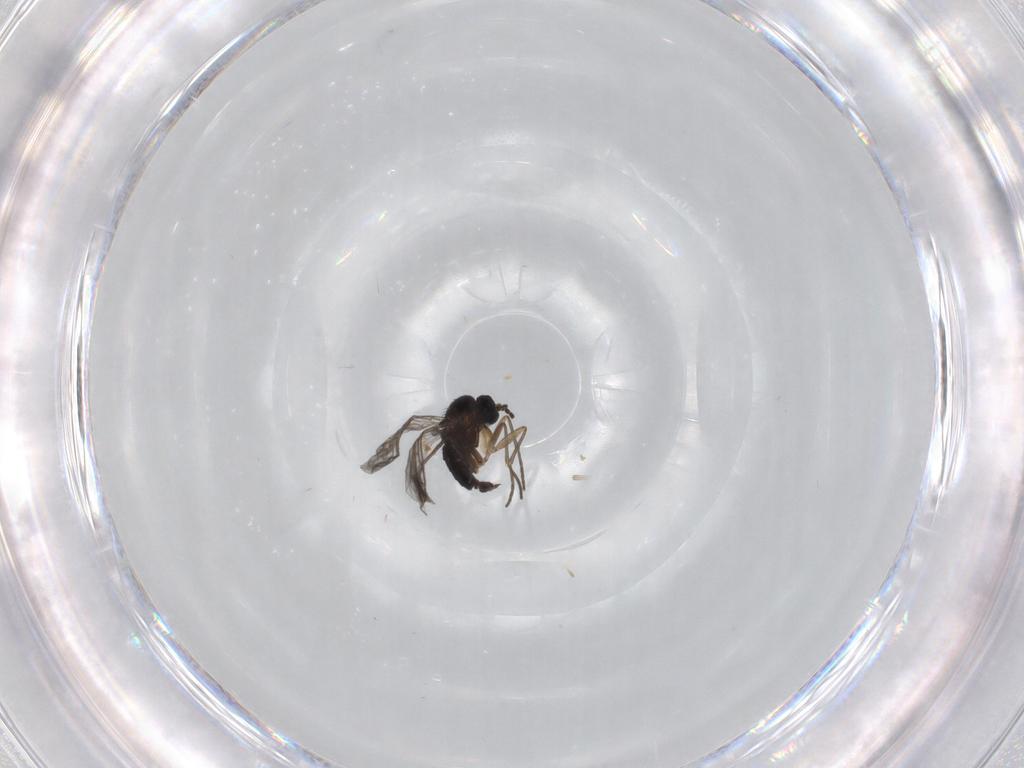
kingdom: Animalia
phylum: Arthropoda
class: Insecta
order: Diptera
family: Sciaridae
